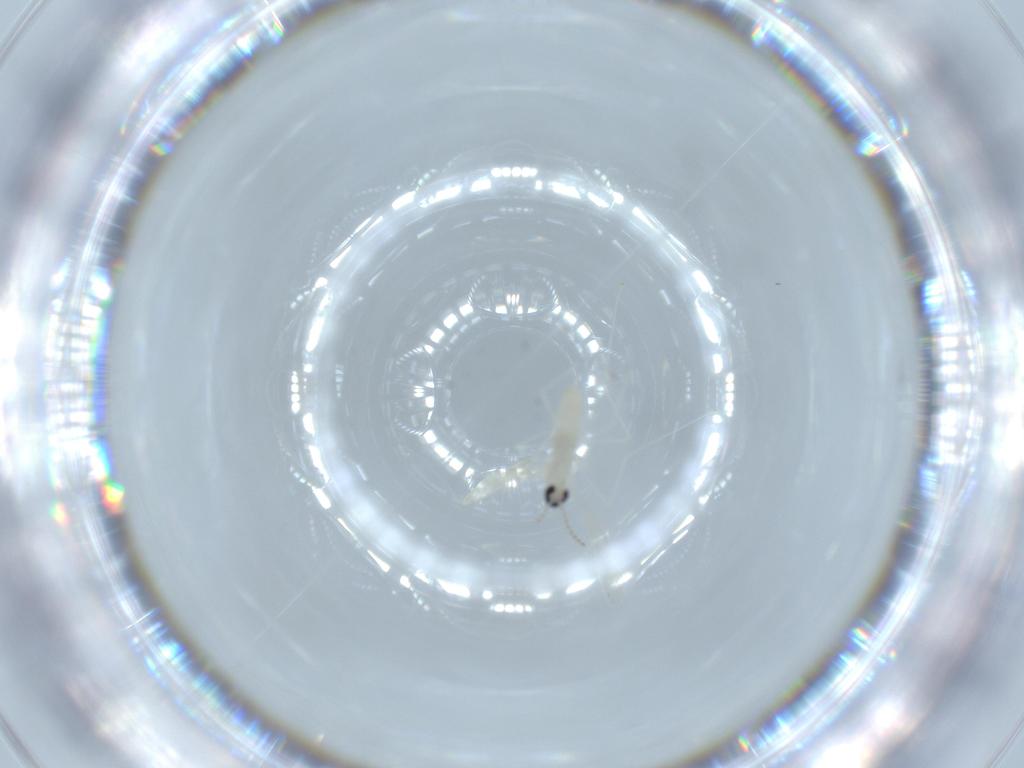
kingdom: Animalia
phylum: Arthropoda
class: Insecta
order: Diptera
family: Cecidomyiidae
